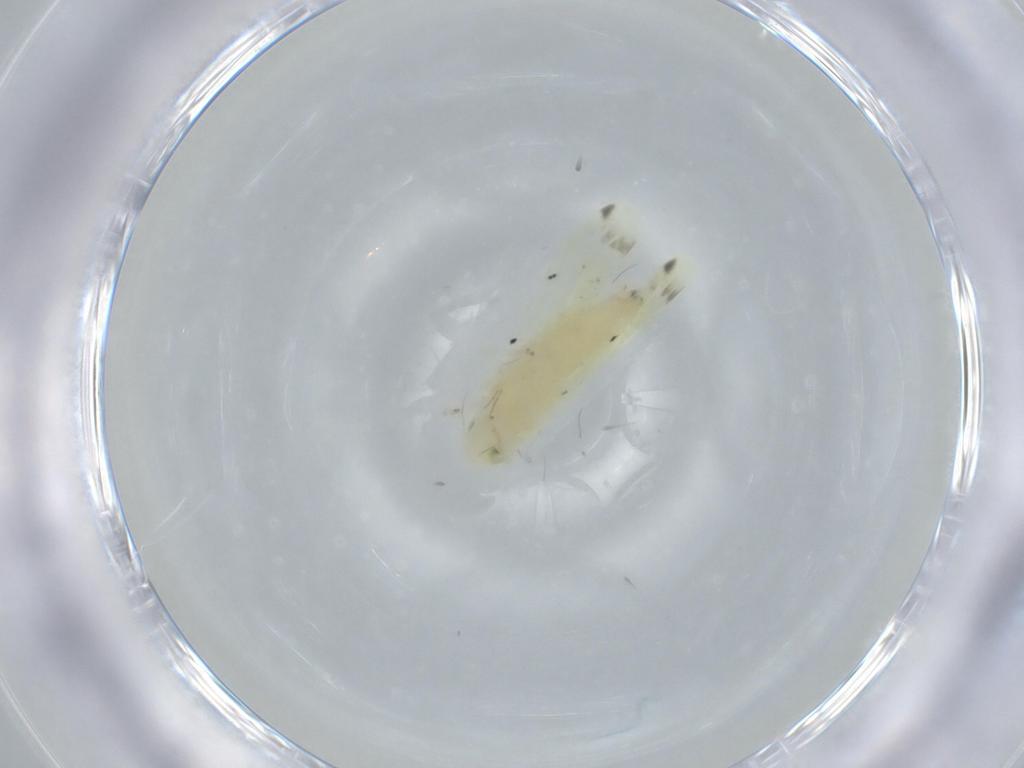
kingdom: Animalia
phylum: Arthropoda
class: Insecta
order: Hemiptera
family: Cicadellidae
